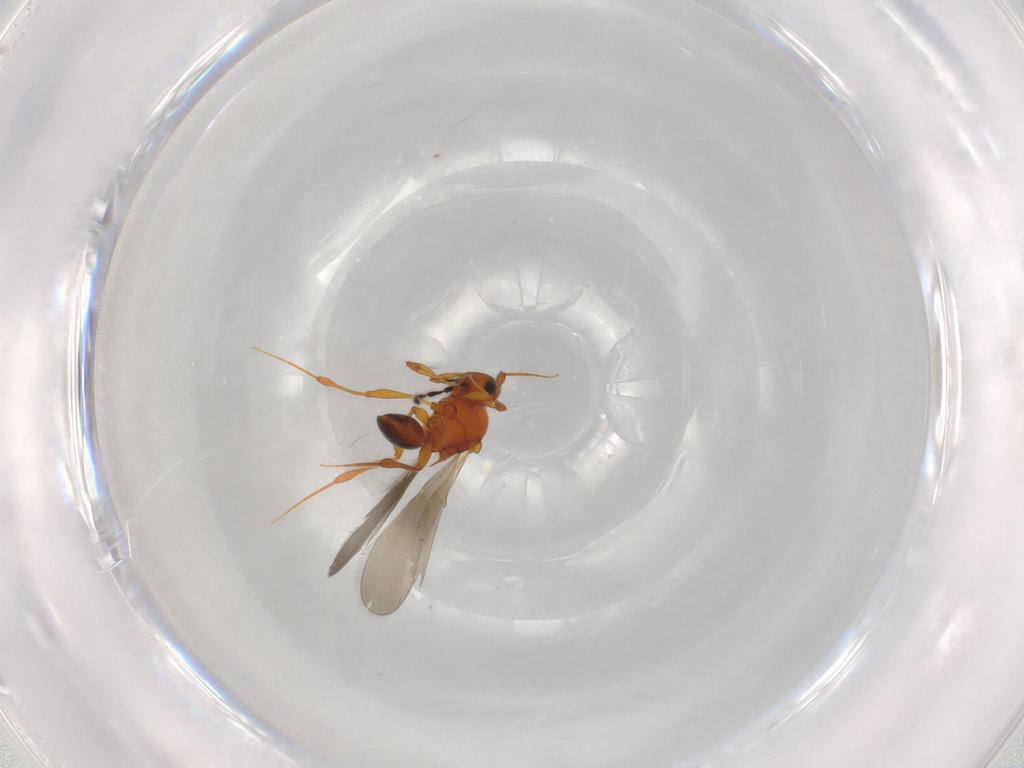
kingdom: Animalia
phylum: Arthropoda
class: Insecta
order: Hymenoptera
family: Platygastridae
